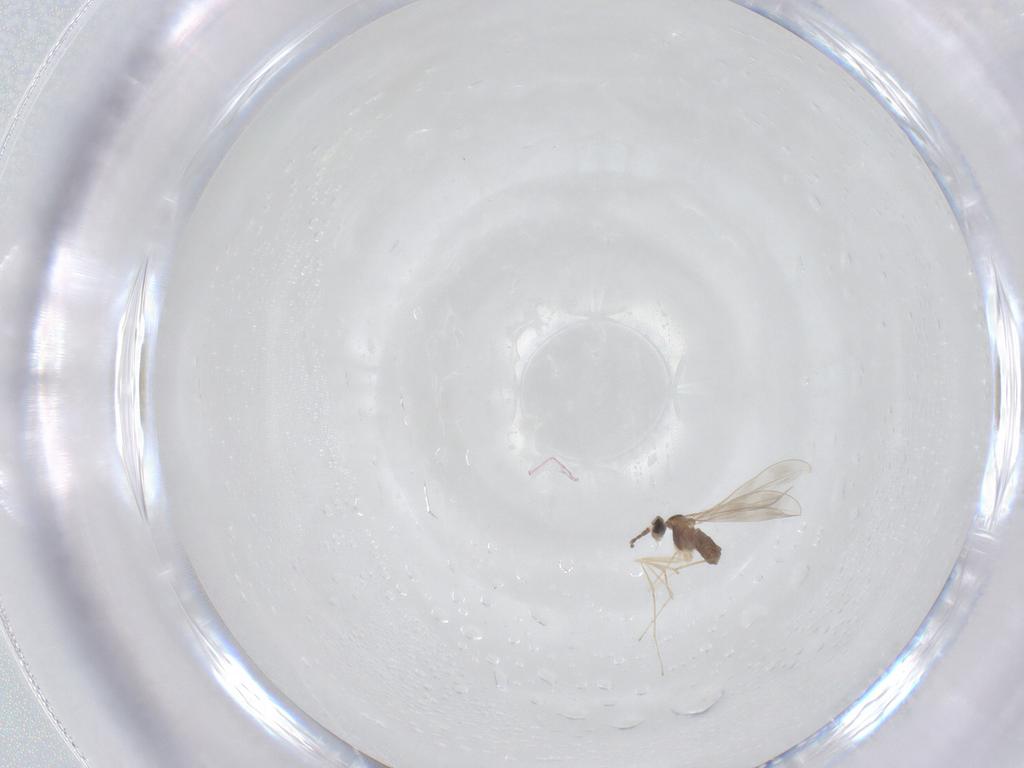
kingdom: Animalia
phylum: Arthropoda
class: Insecta
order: Diptera
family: Cecidomyiidae
